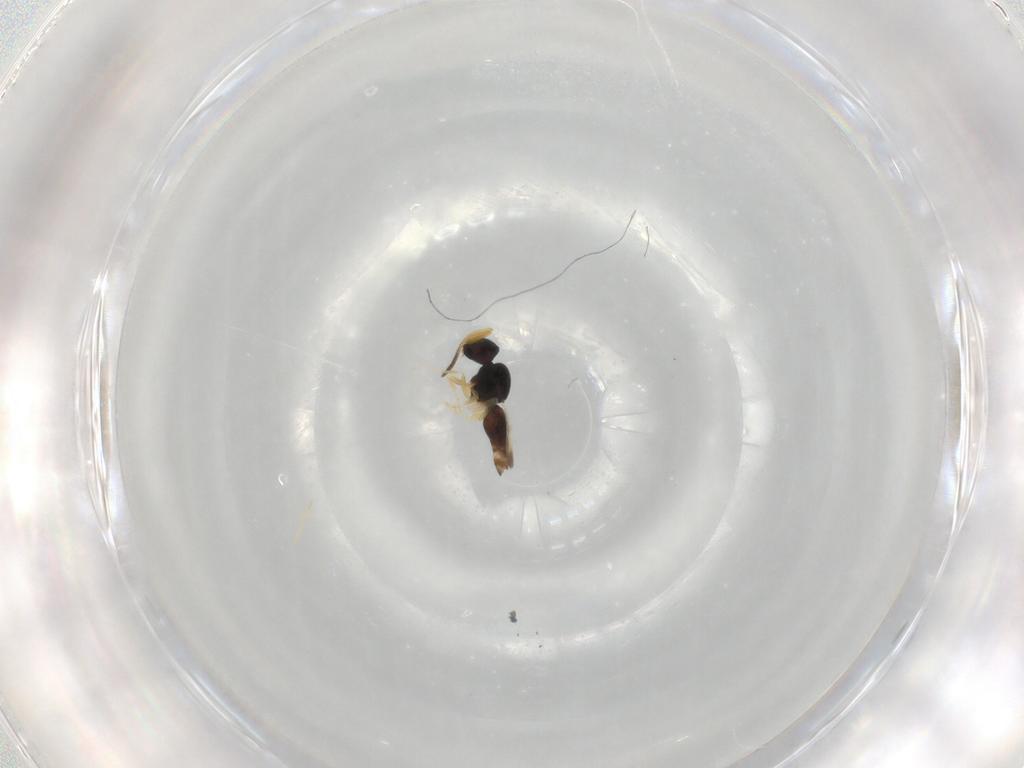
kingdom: Animalia
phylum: Arthropoda
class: Insecta
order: Hymenoptera
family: Ceraphronidae
